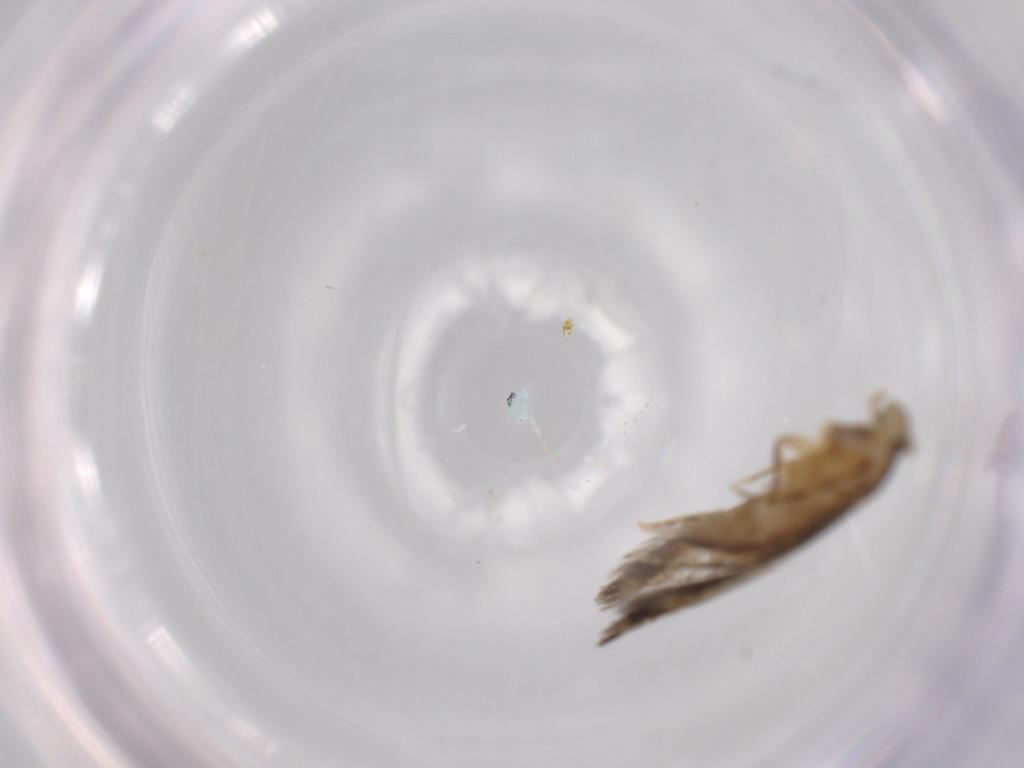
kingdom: Animalia
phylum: Arthropoda
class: Insecta
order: Lepidoptera
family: Tineidae
